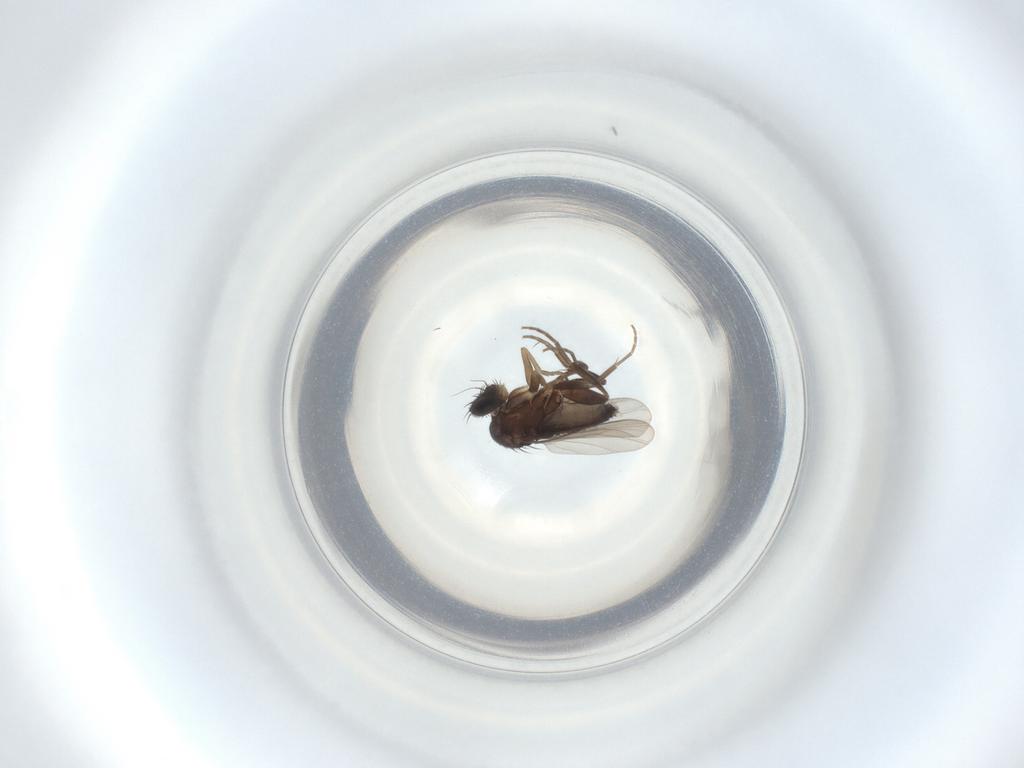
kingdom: Animalia
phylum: Arthropoda
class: Insecta
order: Diptera
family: Phoridae
